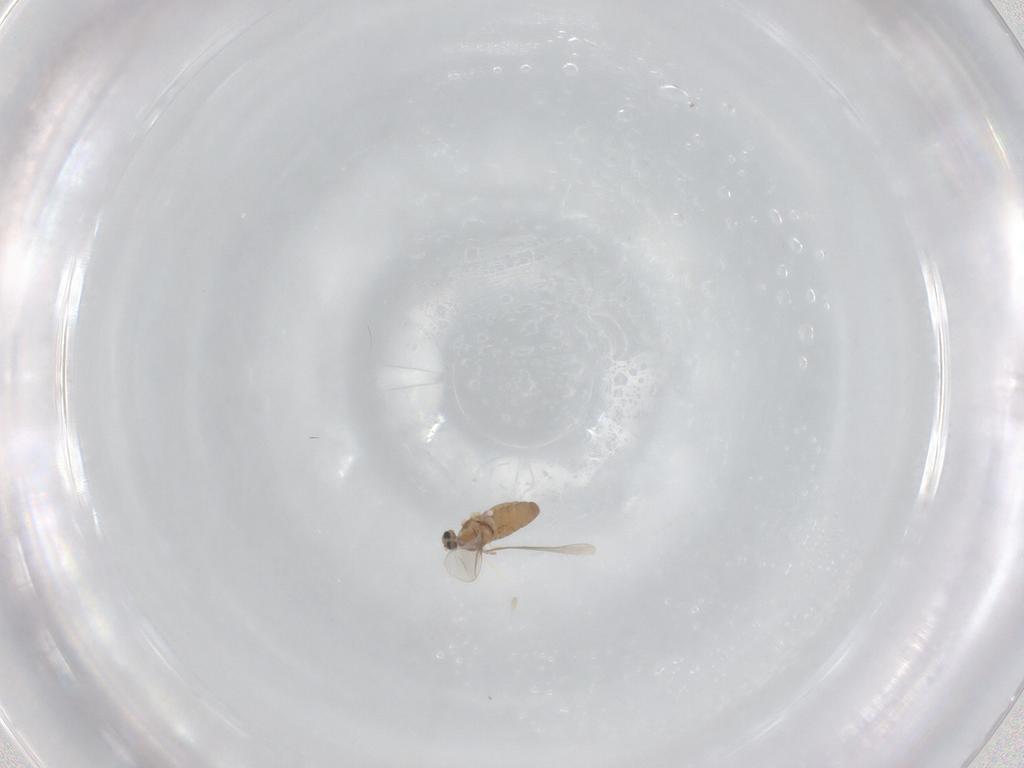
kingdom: Animalia
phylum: Arthropoda
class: Insecta
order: Diptera
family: Cecidomyiidae
